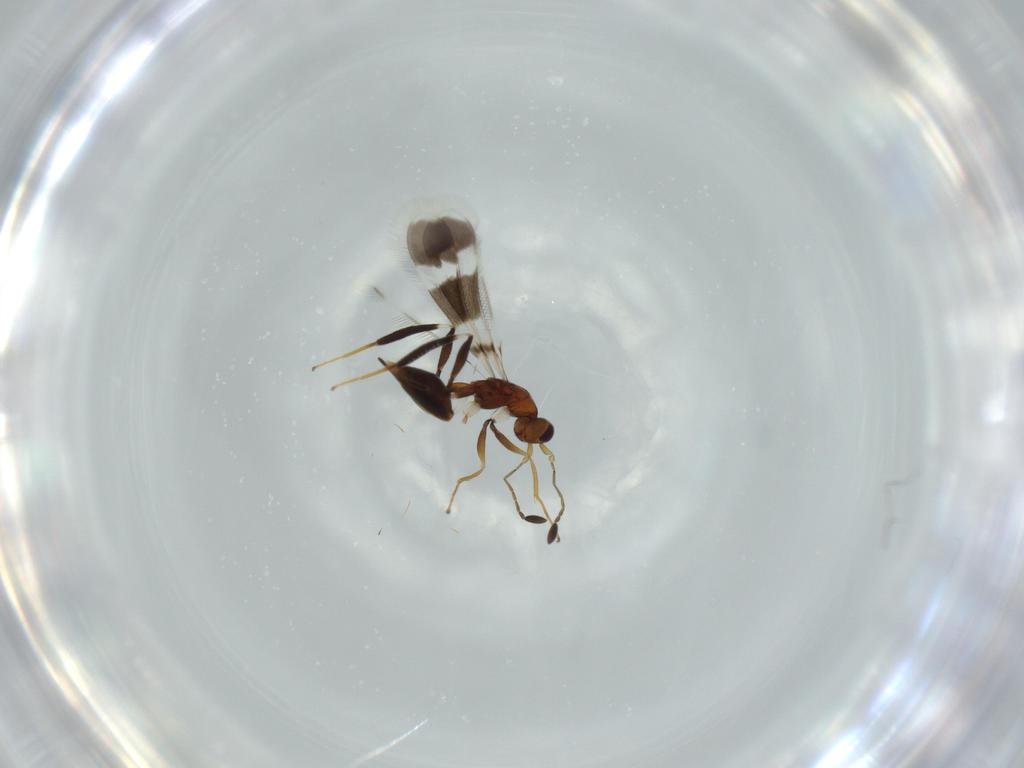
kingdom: Animalia
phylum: Arthropoda
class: Insecta
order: Hymenoptera
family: Mymaridae
